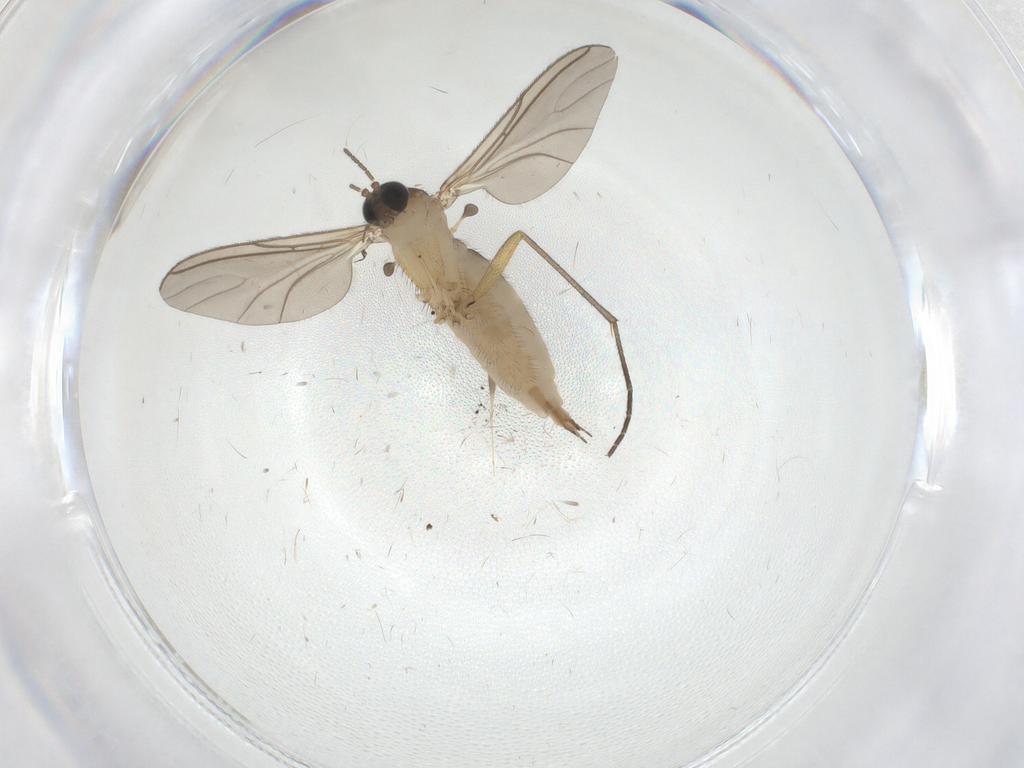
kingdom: Animalia
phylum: Arthropoda
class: Insecta
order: Diptera
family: Sciaridae
